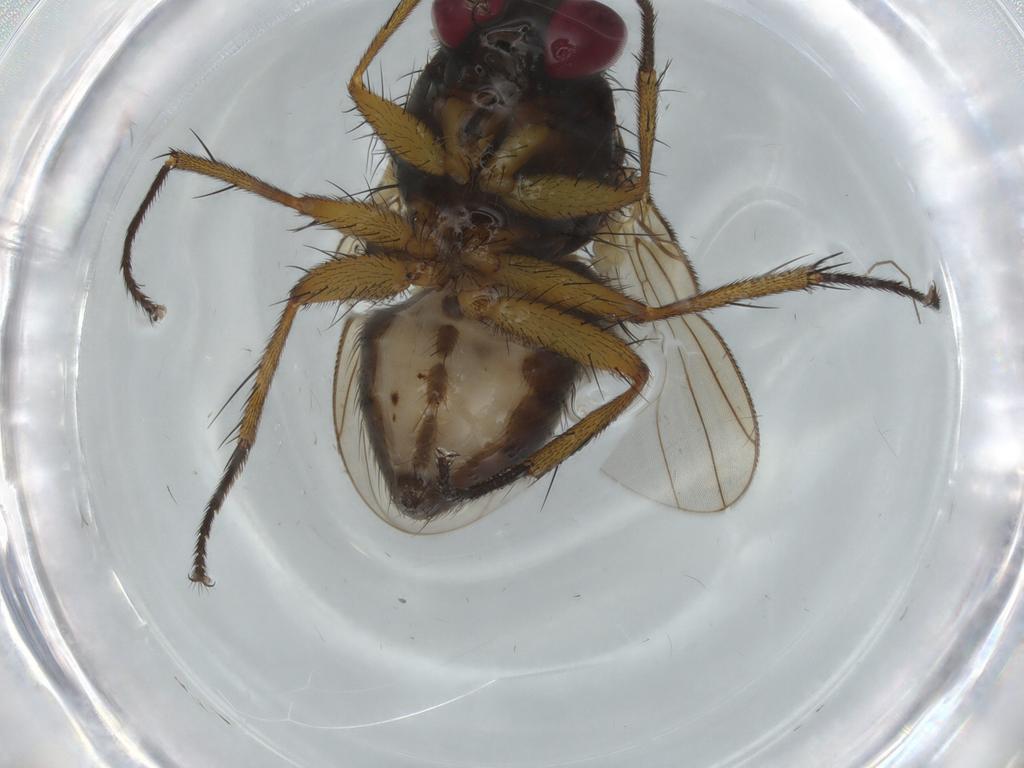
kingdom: Animalia
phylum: Arthropoda
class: Insecta
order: Diptera
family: Muscidae
